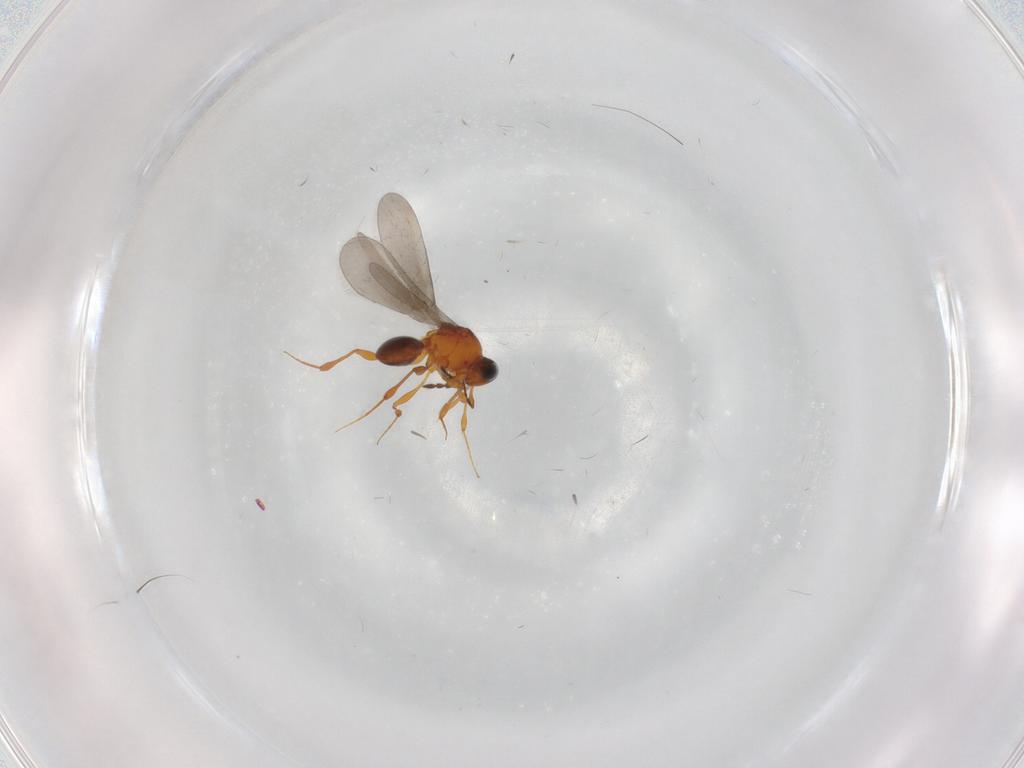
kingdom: Animalia
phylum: Arthropoda
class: Insecta
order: Hymenoptera
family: Platygastridae
